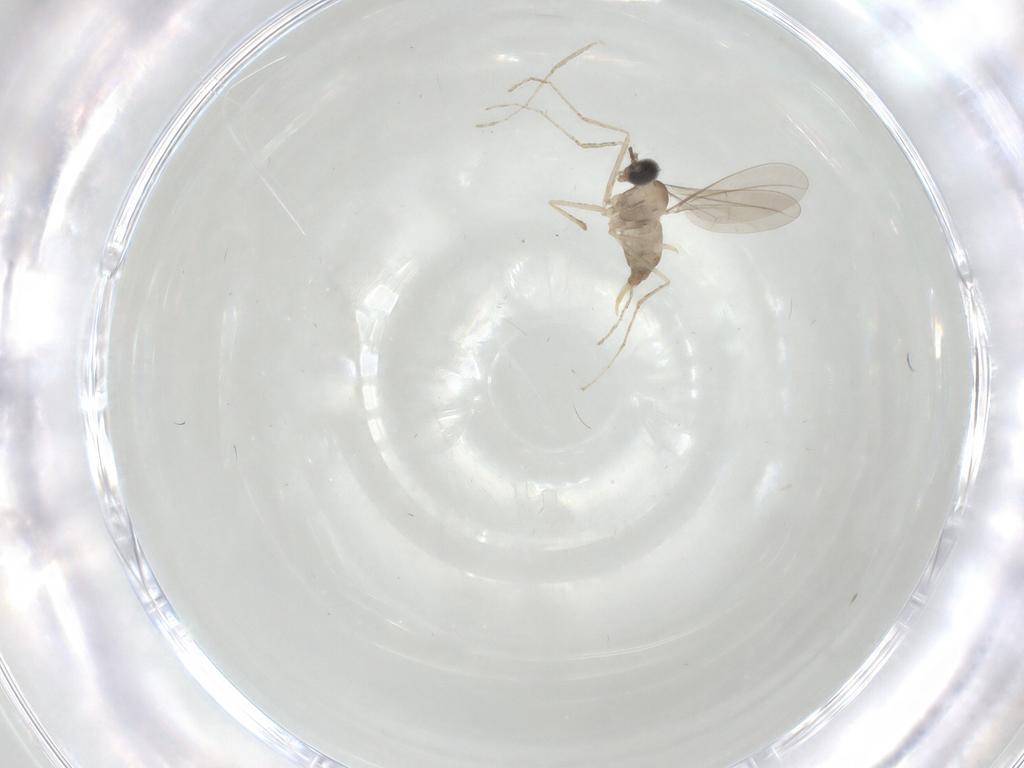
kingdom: Animalia
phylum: Arthropoda
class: Insecta
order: Diptera
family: Cecidomyiidae
